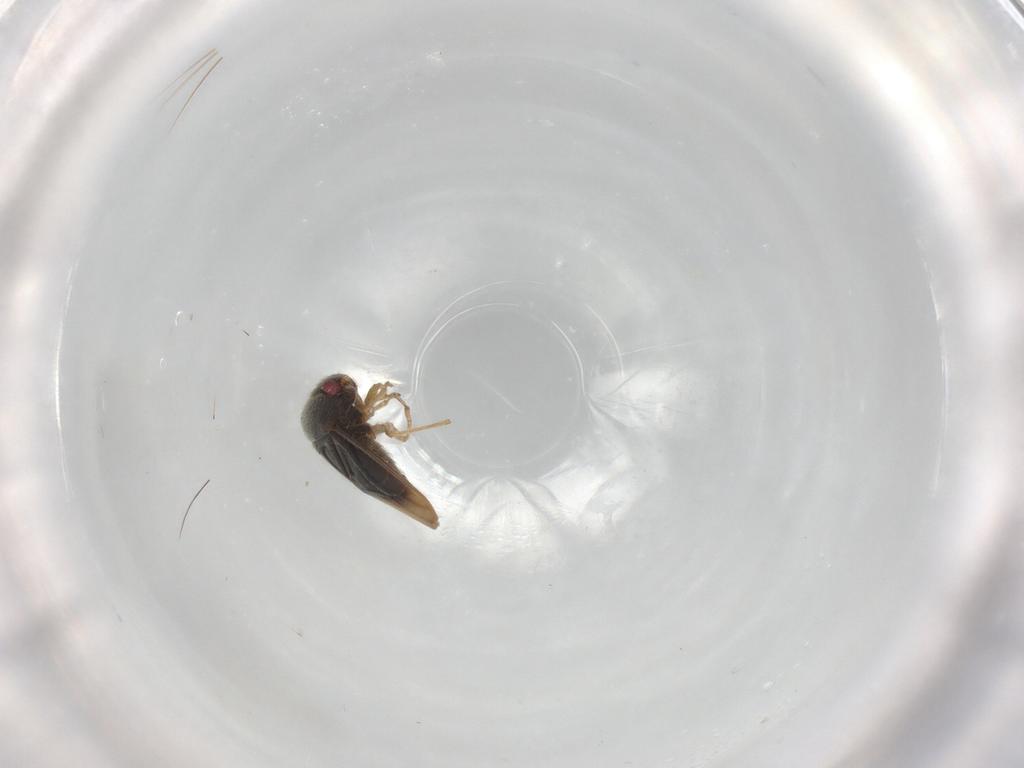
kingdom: Animalia
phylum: Arthropoda
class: Insecta
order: Hemiptera
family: Schizopteridae
